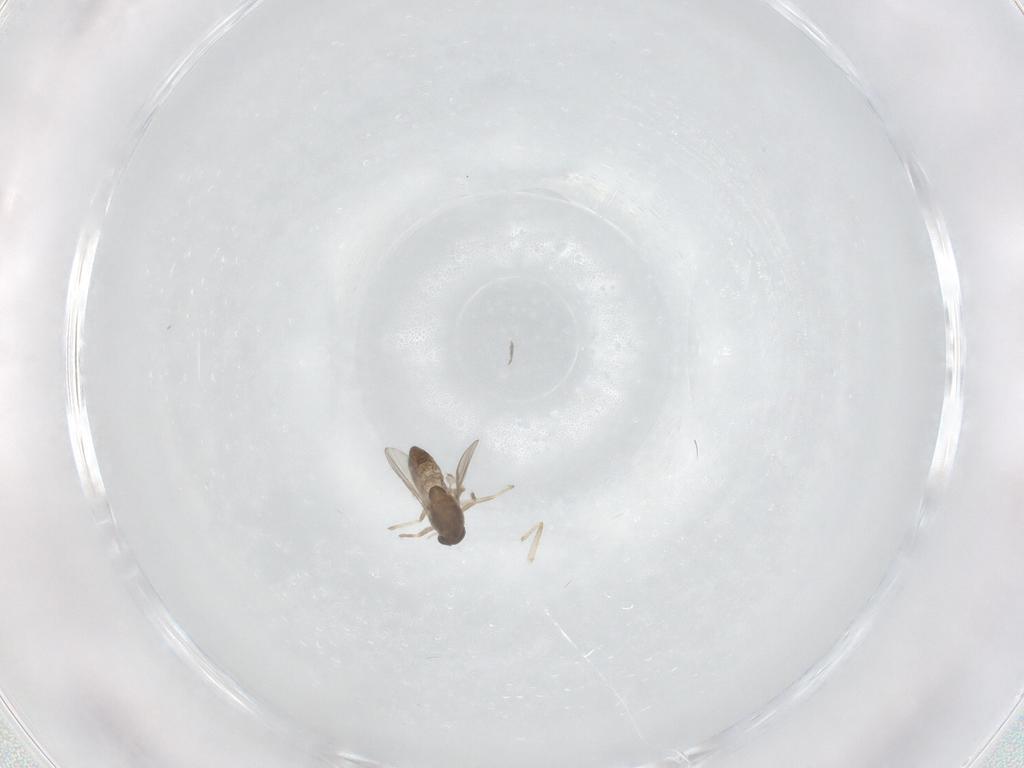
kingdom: Animalia
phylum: Arthropoda
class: Insecta
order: Diptera
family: Chironomidae
